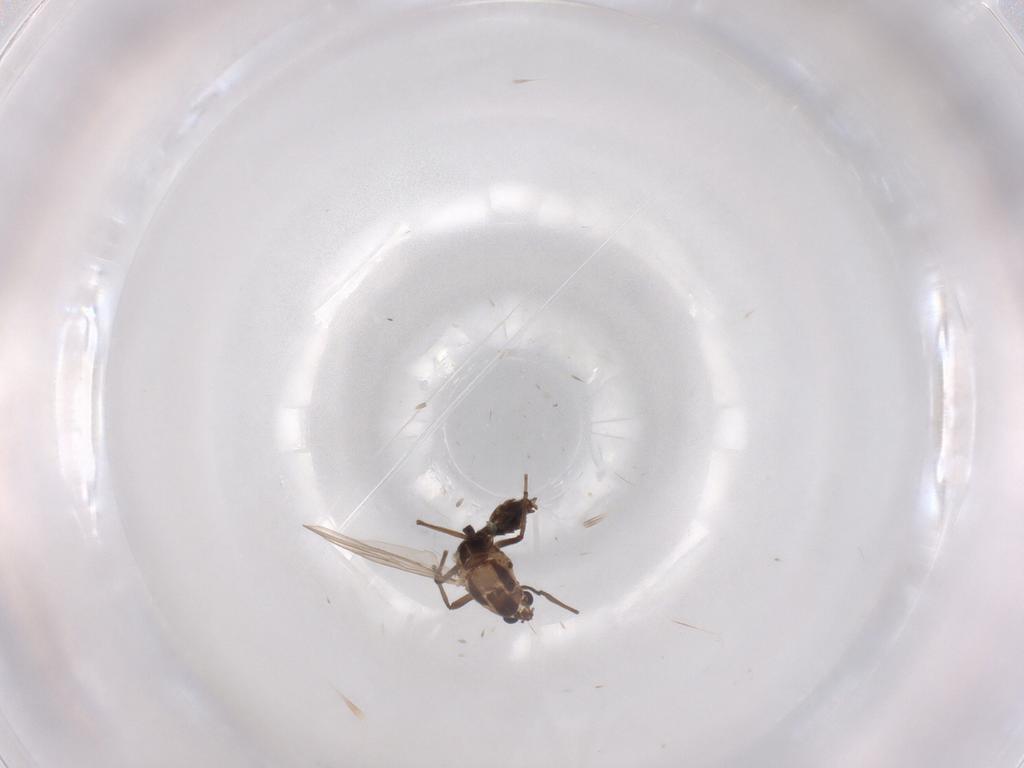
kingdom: Animalia
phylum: Arthropoda
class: Insecta
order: Diptera
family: Chironomidae
